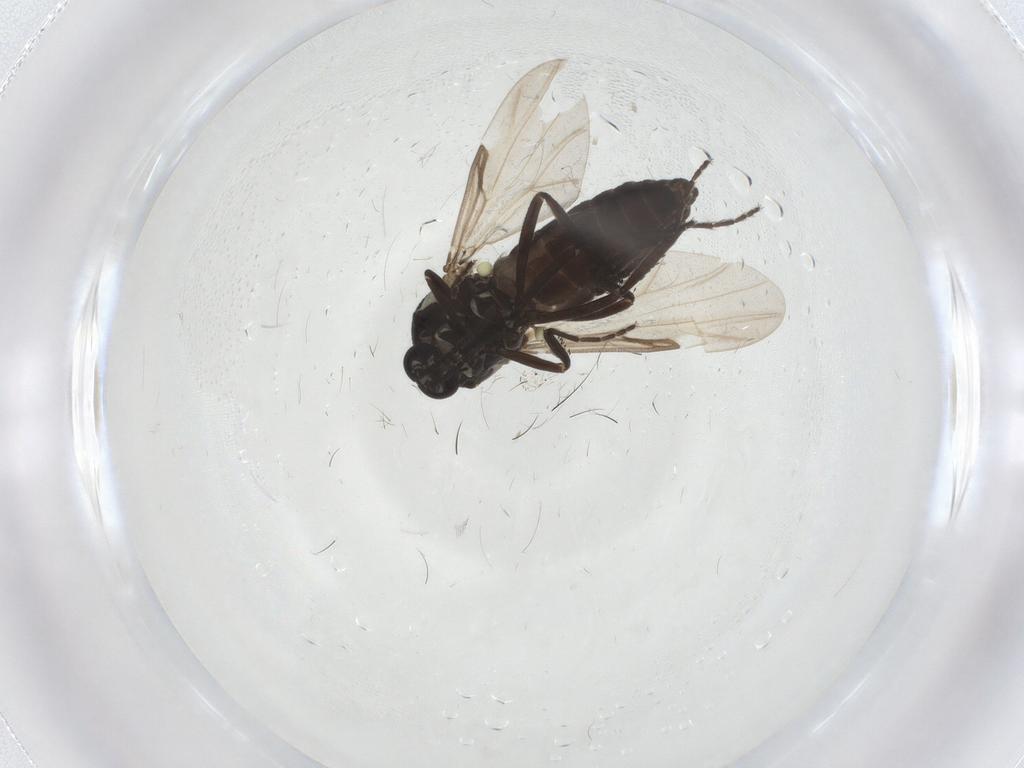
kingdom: Animalia
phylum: Arthropoda
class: Insecta
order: Diptera
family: Ceratopogonidae
